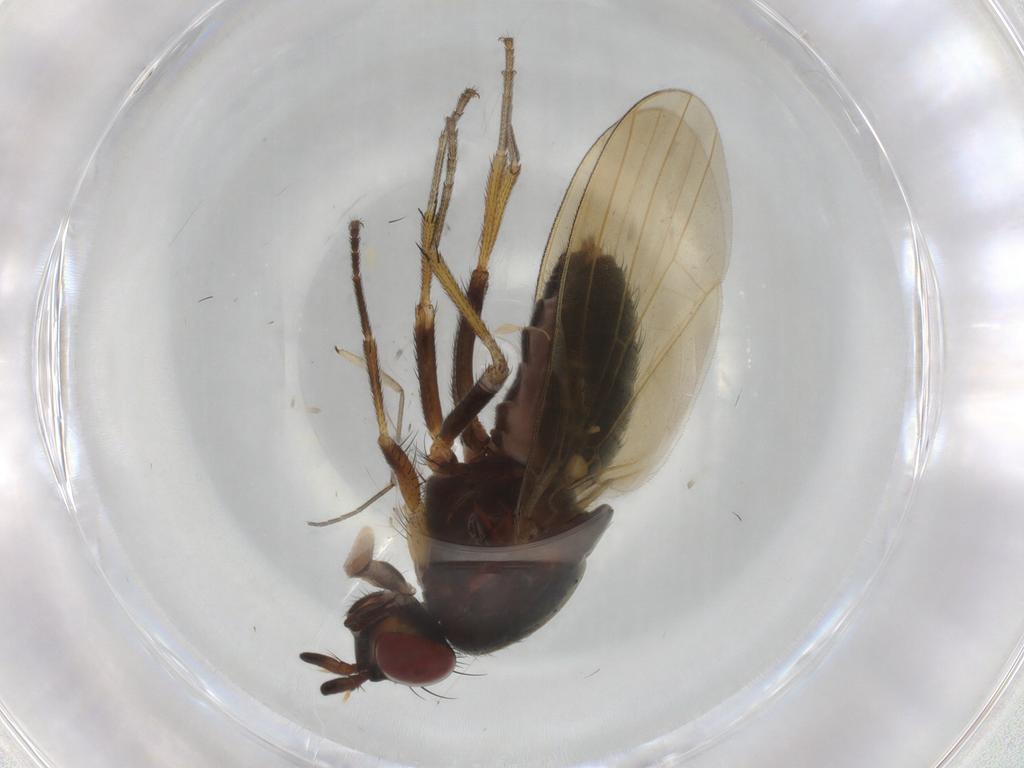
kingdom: Animalia
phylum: Arthropoda
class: Insecta
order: Diptera
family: Lauxaniidae
